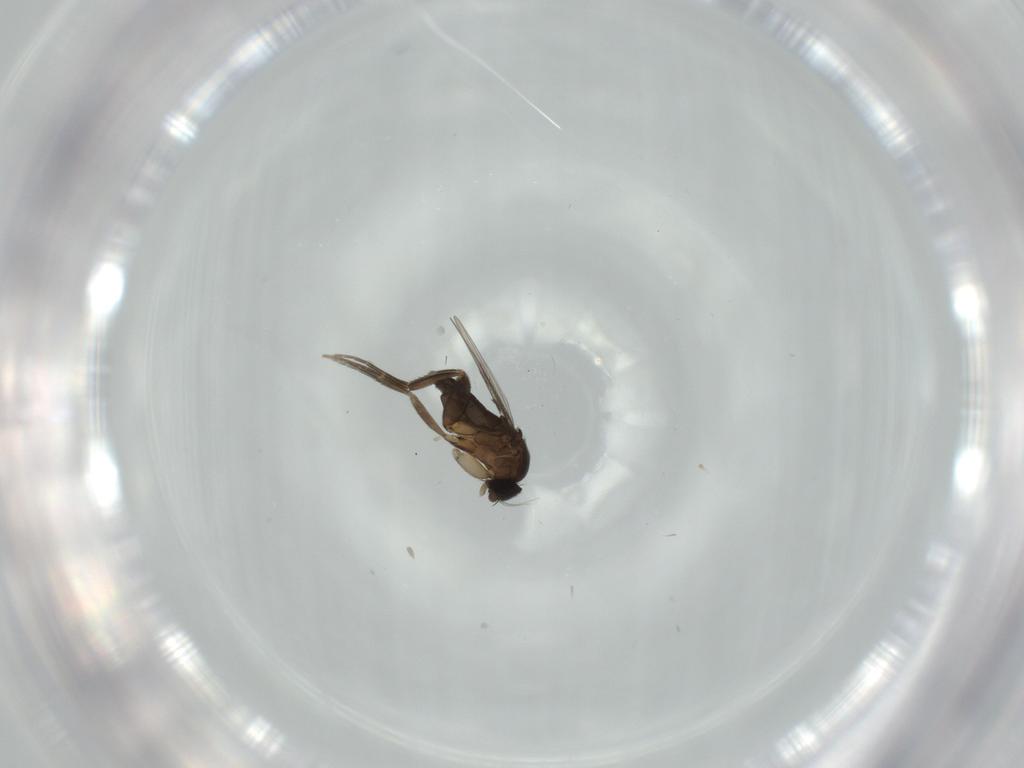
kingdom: Animalia
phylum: Arthropoda
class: Insecta
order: Diptera
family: Phoridae
